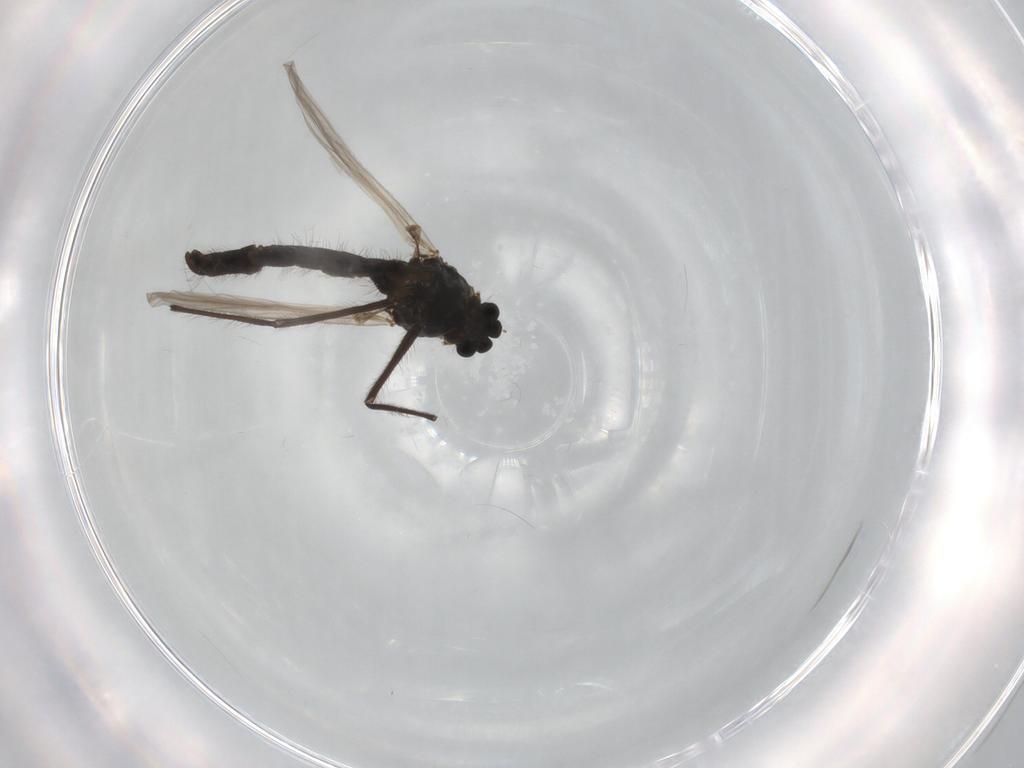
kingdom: Animalia
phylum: Arthropoda
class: Insecta
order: Diptera
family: Chironomidae
